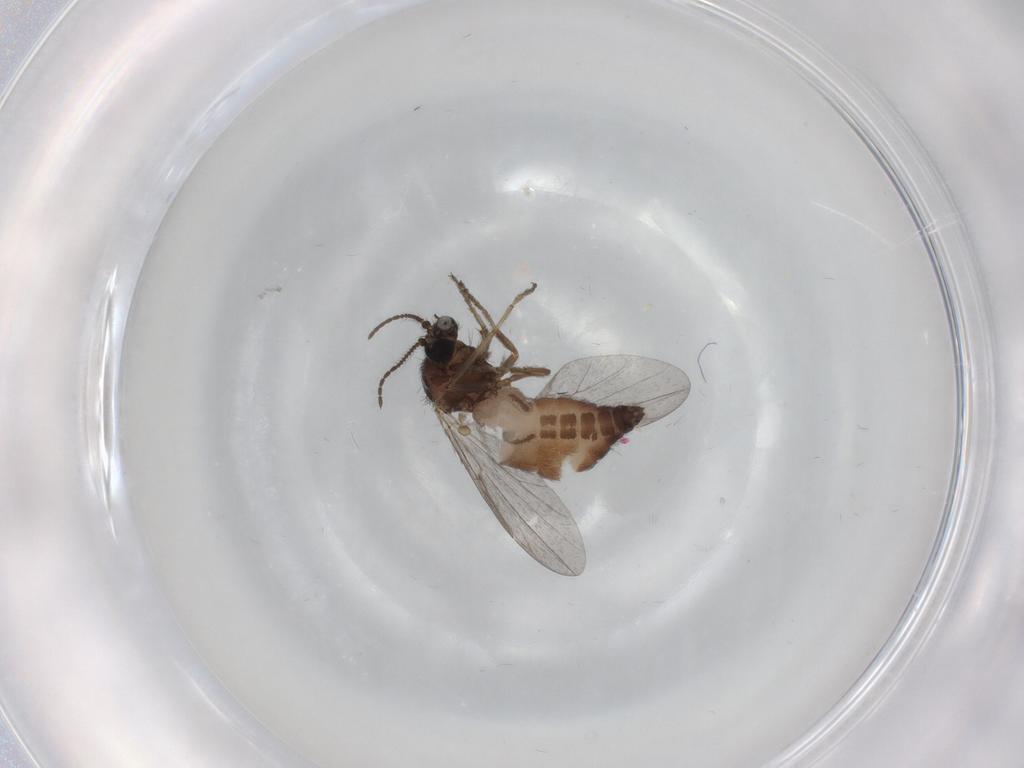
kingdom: Animalia
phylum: Arthropoda
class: Insecta
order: Diptera
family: Ceratopogonidae
